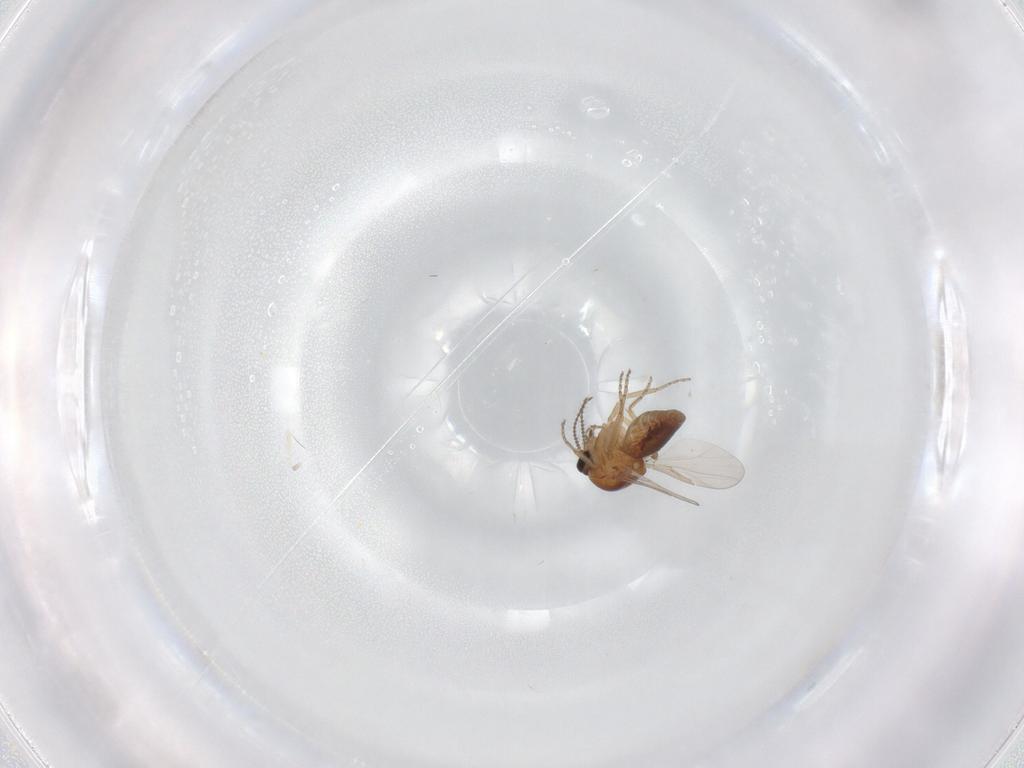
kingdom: Animalia
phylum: Arthropoda
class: Insecta
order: Diptera
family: Ceratopogonidae
